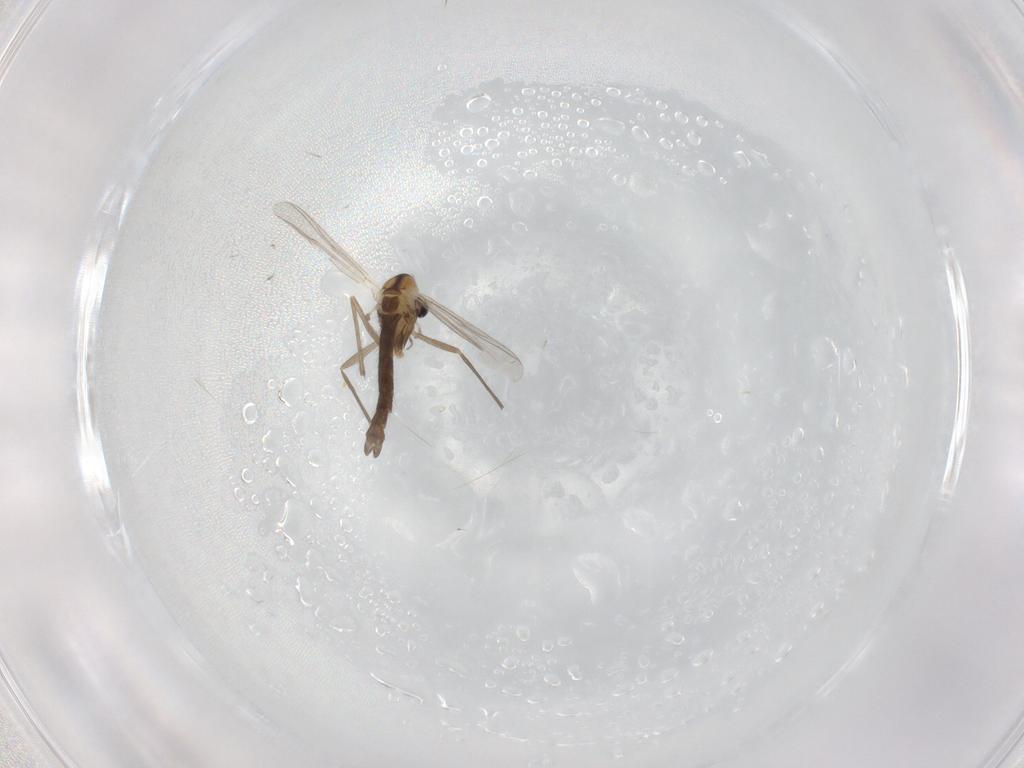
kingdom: Animalia
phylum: Arthropoda
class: Insecta
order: Diptera
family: Chironomidae
